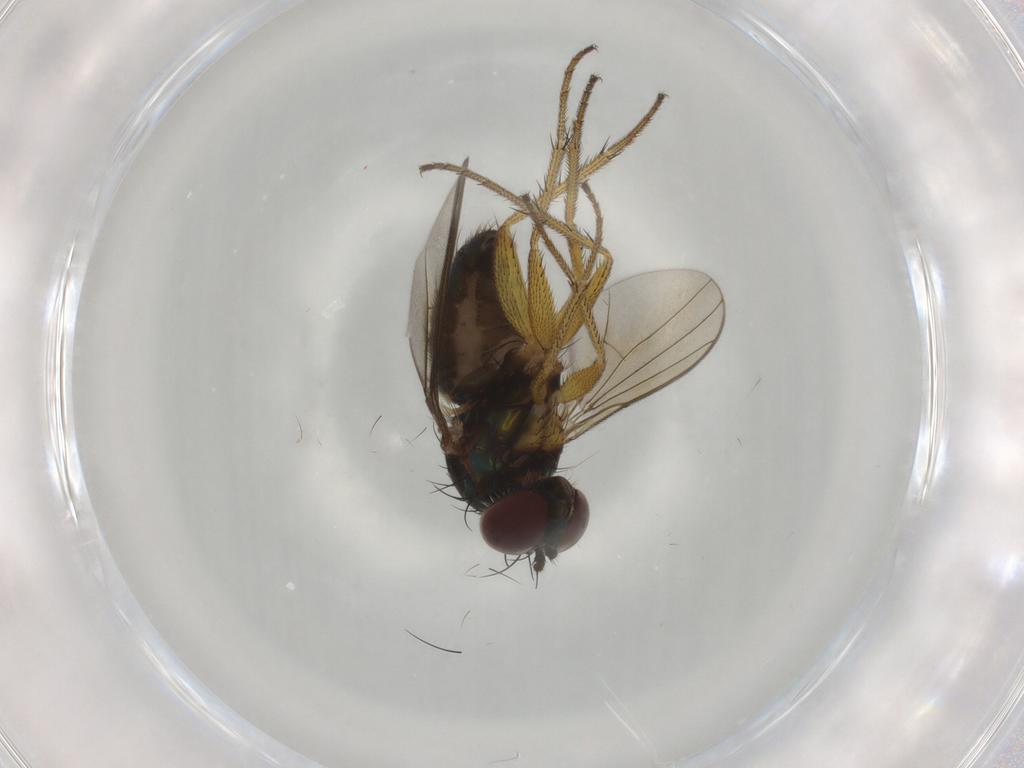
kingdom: Animalia
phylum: Arthropoda
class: Insecta
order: Diptera
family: Dolichopodidae
